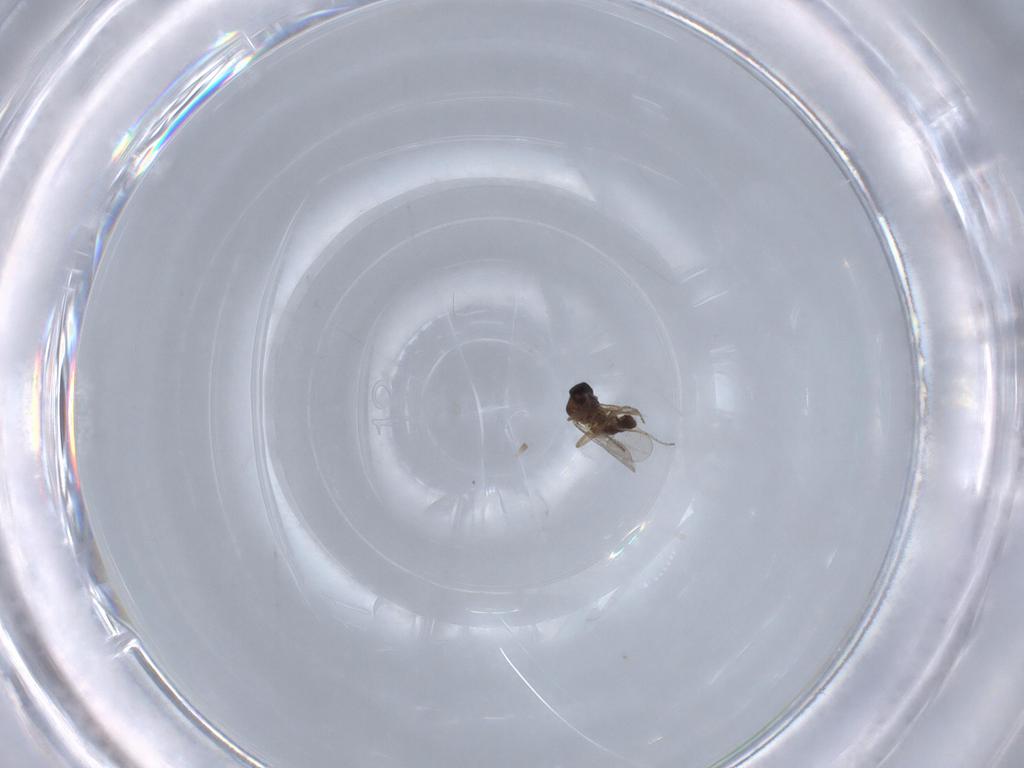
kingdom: Animalia
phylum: Arthropoda
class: Insecta
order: Diptera
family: Ceratopogonidae
